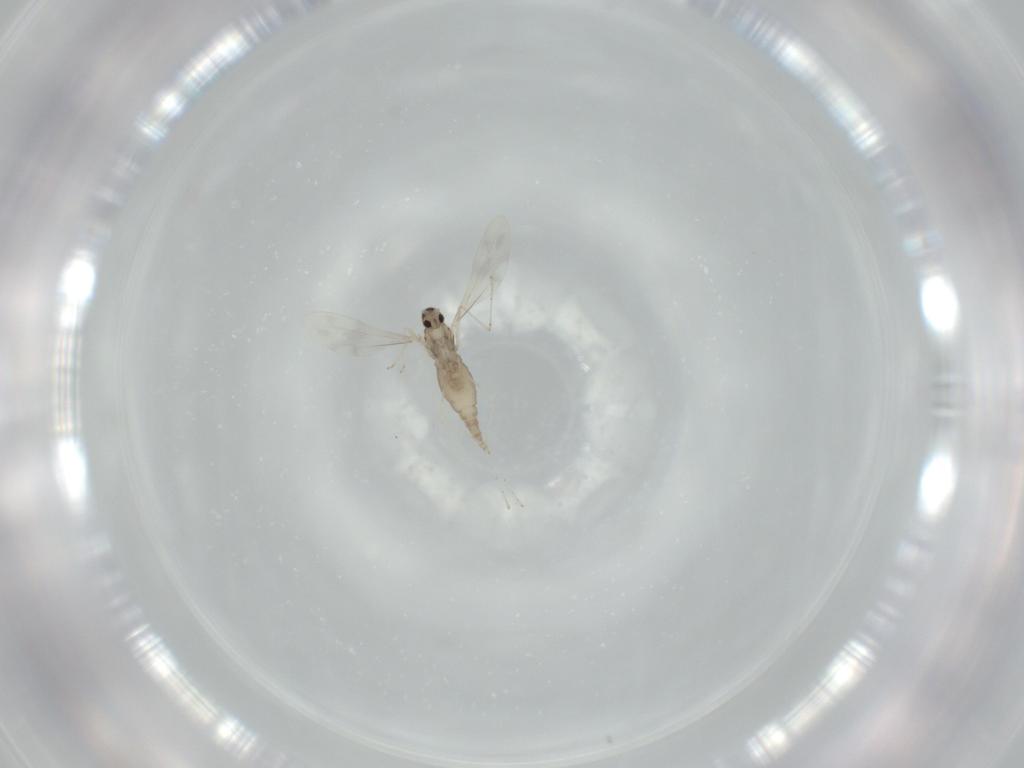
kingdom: Animalia
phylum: Arthropoda
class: Insecta
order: Diptera
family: Cecidomyiidae
